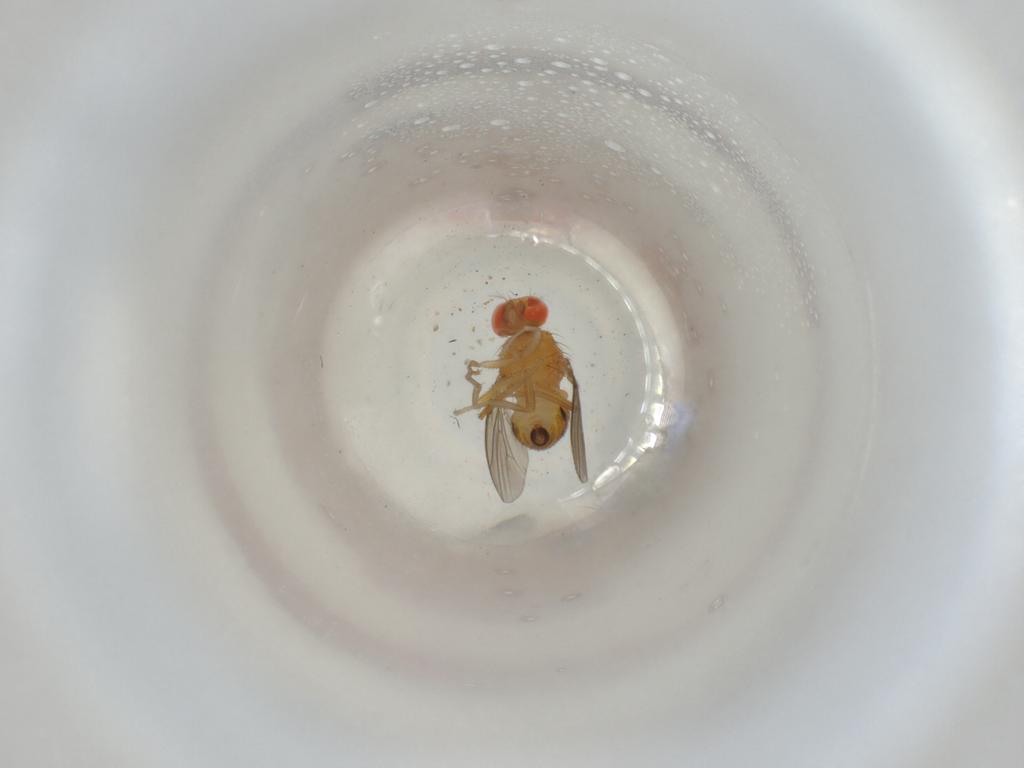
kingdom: Animalia
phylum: Arthropoda
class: Insecta
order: Diptera
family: Drosophilidae
